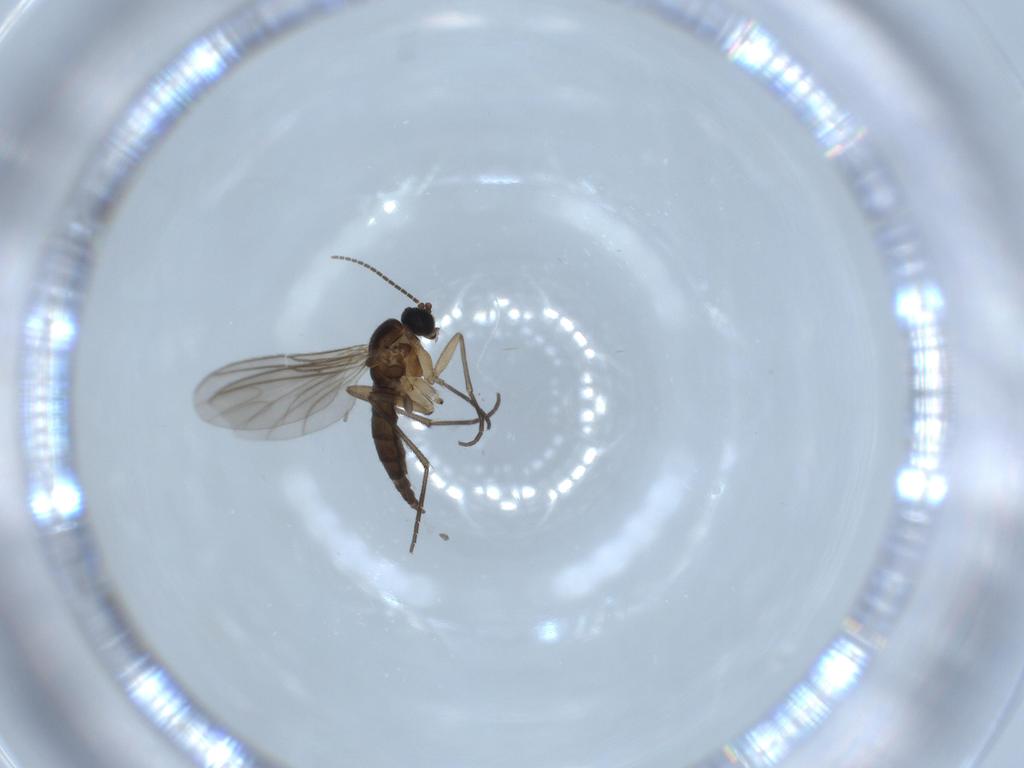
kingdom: Animalia
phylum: Arthropoda
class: Insecta
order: Diptera
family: Sciaridae
